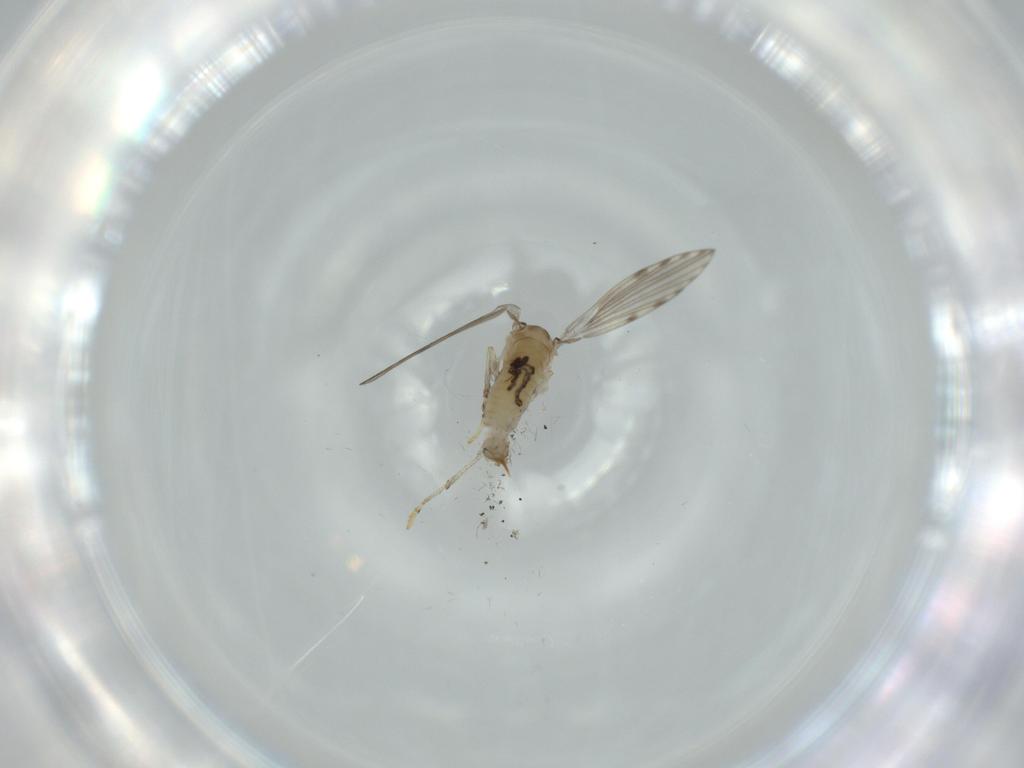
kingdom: Animalia
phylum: Arthropoda
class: Insecta
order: Diptera
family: Psychodidae
